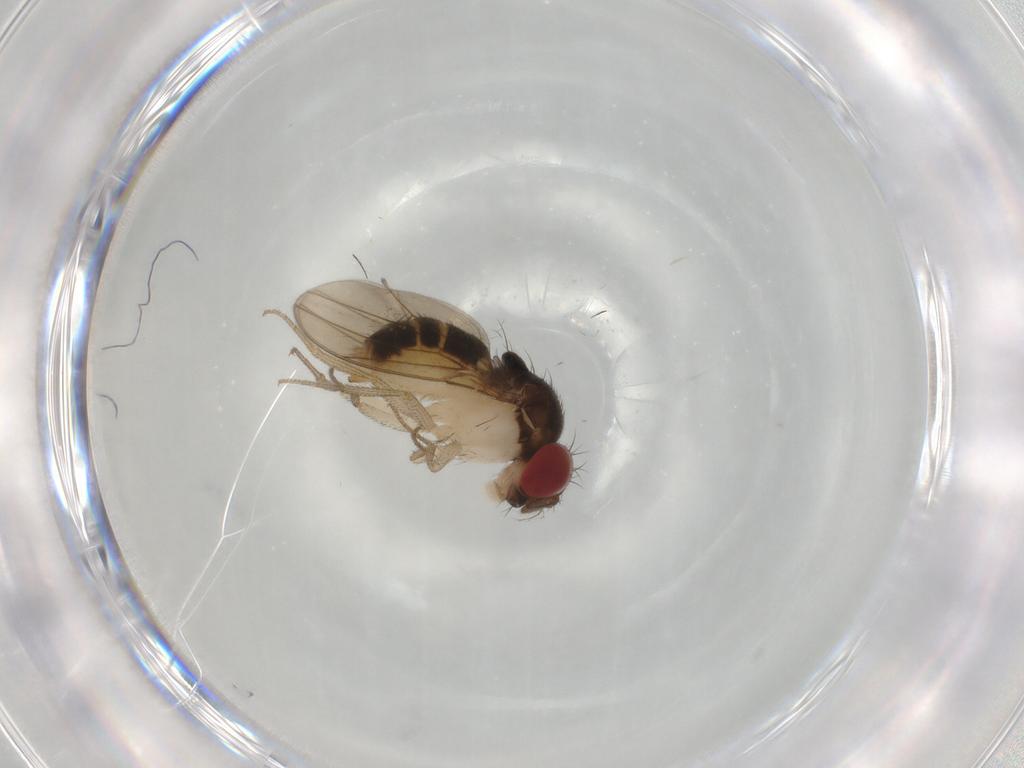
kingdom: Animalia
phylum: Arthropoda
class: Insecta
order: Diptera
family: Drosophilidae
